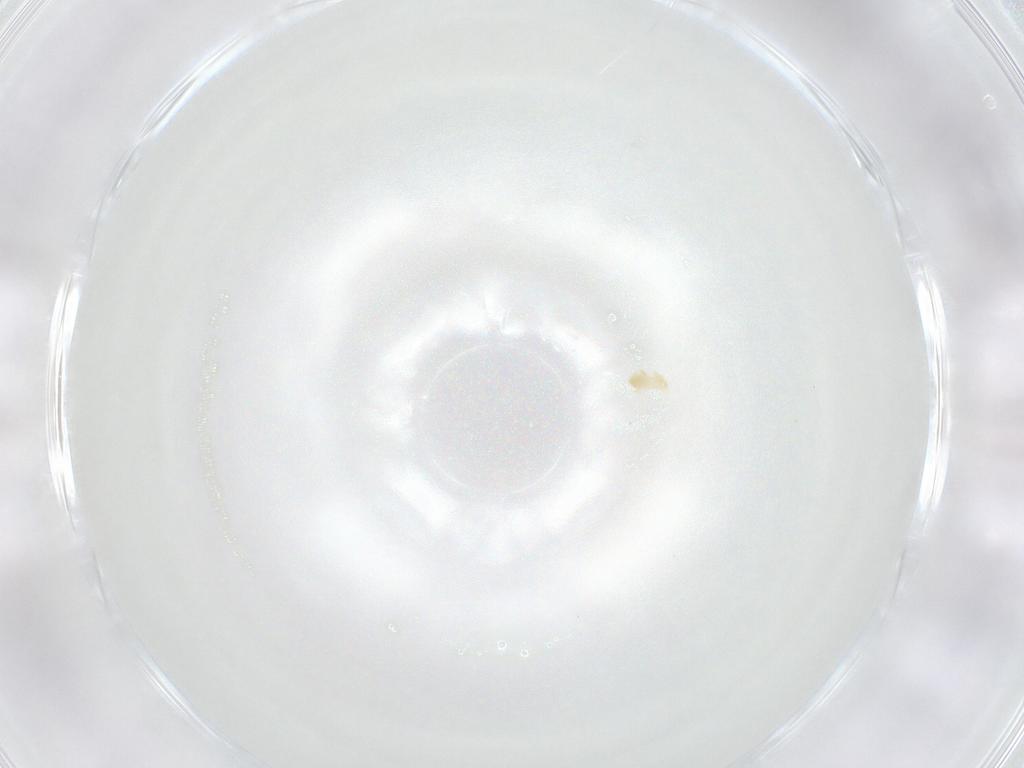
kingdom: Animalia
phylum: Arthropoda
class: Arachnida
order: Trombidiformes
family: Eupodidae
